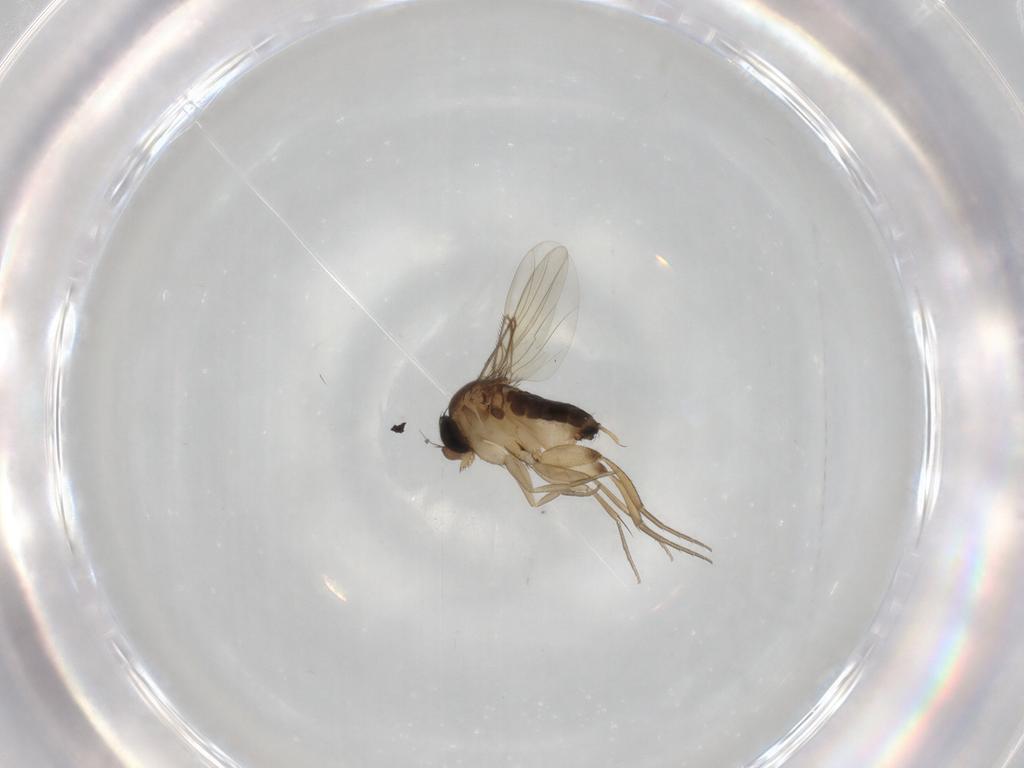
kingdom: Animalia
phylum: Arthropoda
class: Insecta
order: Diptera
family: Phoridae
